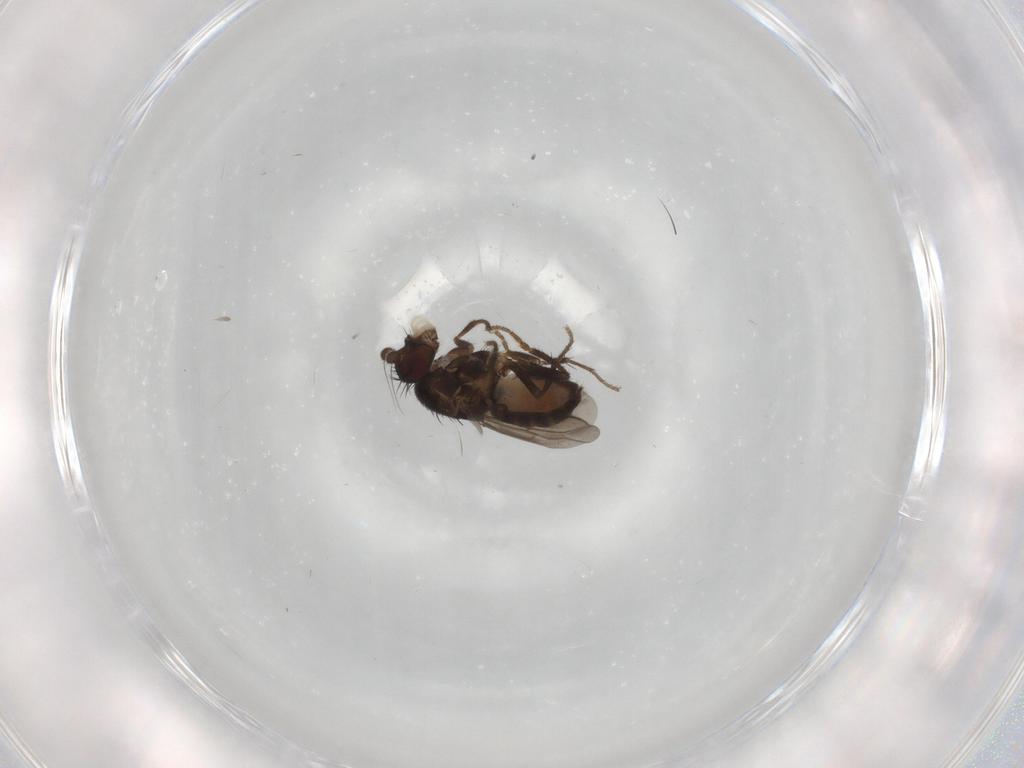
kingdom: Animalia
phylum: Arthropoda
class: Insecta
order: Diptera
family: Sphaeroceridae
